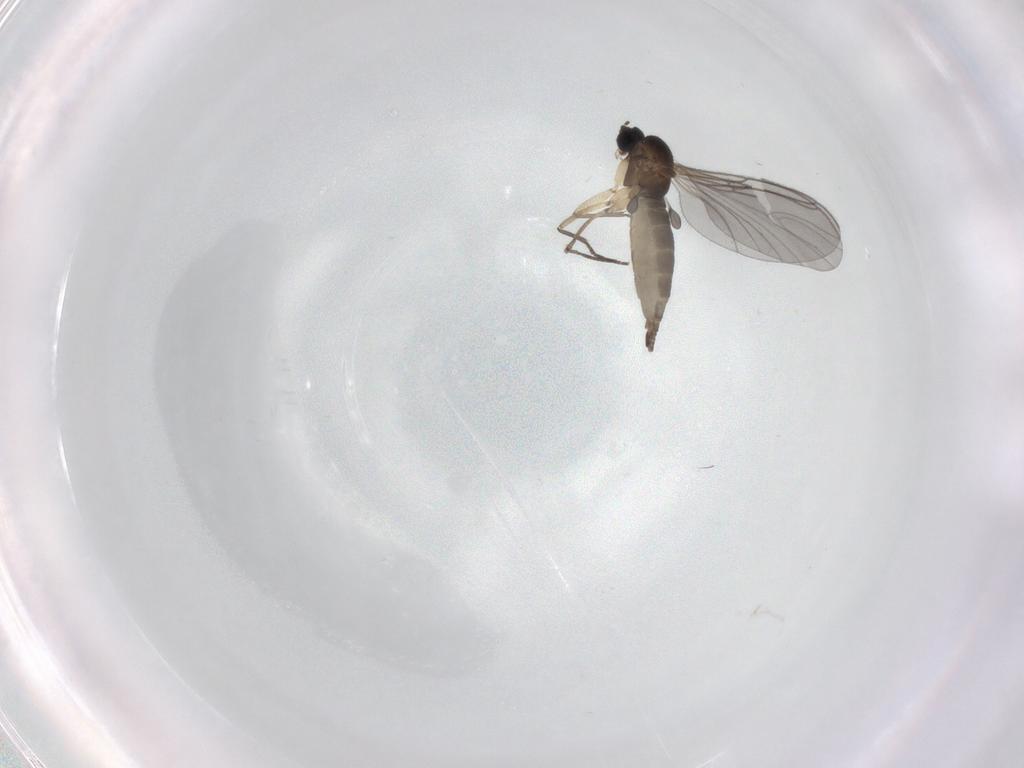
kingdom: Animalia
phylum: Arthropoda
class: Insecta
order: Diptera
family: Sciaridae
